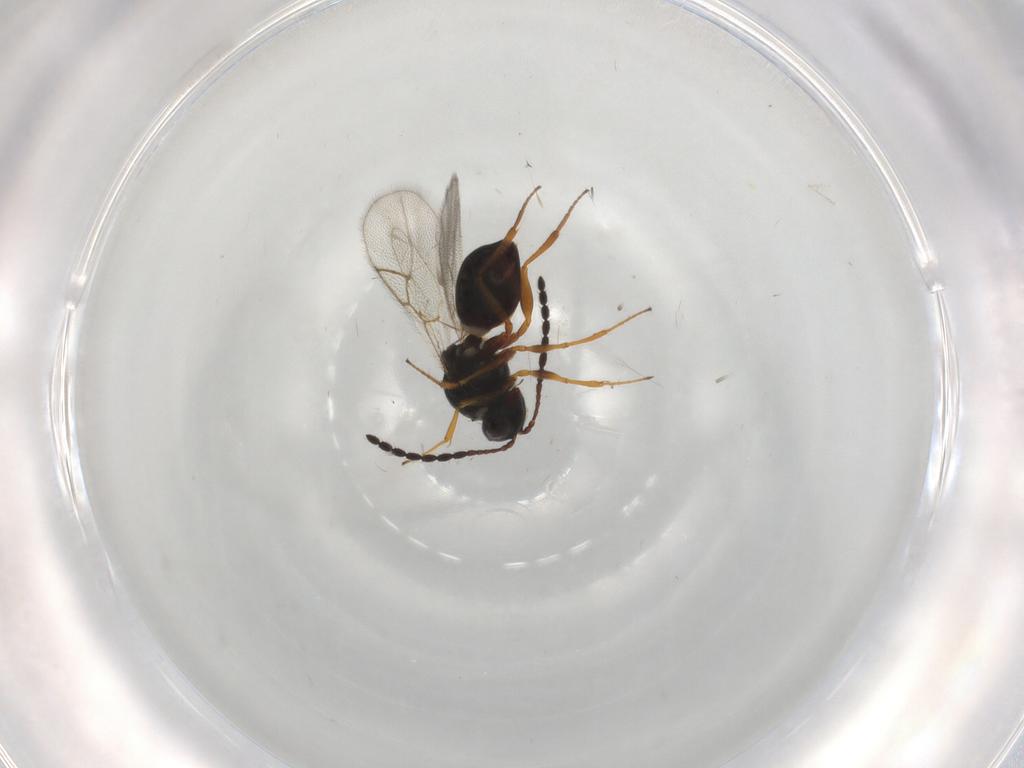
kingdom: Animalia
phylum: Arthropoda
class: Insecta
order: Hymenoptera
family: Figitidae
